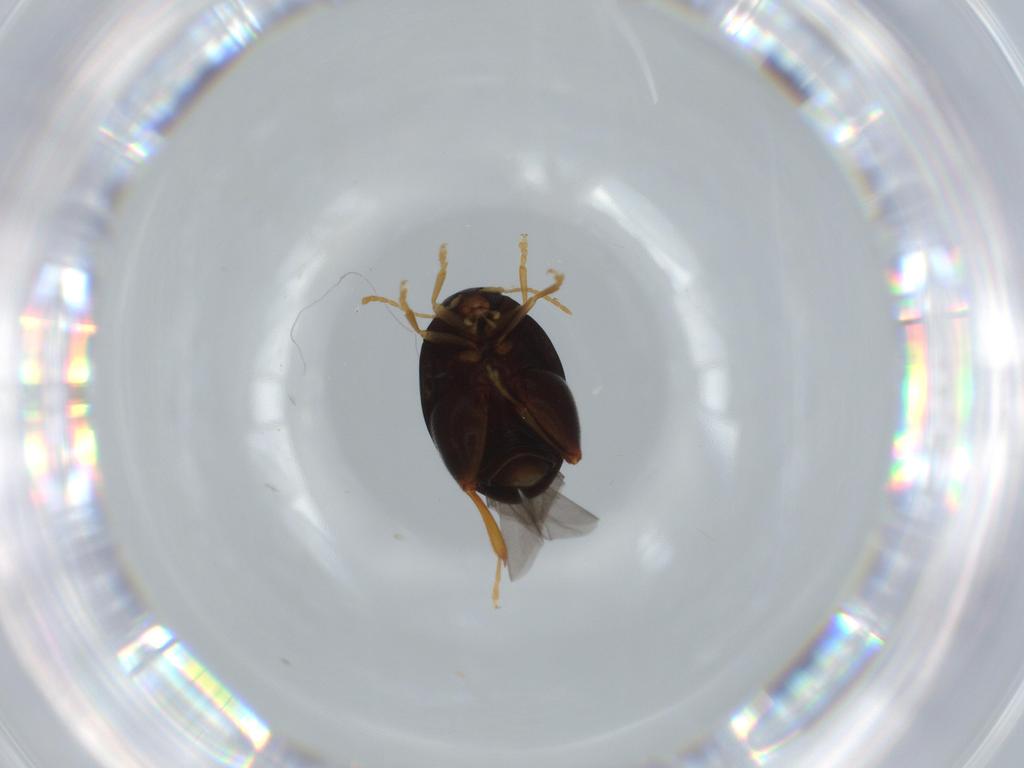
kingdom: Animalia
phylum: Arthropoda
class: Insecta
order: Coleoptera
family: Chrysomelidae
